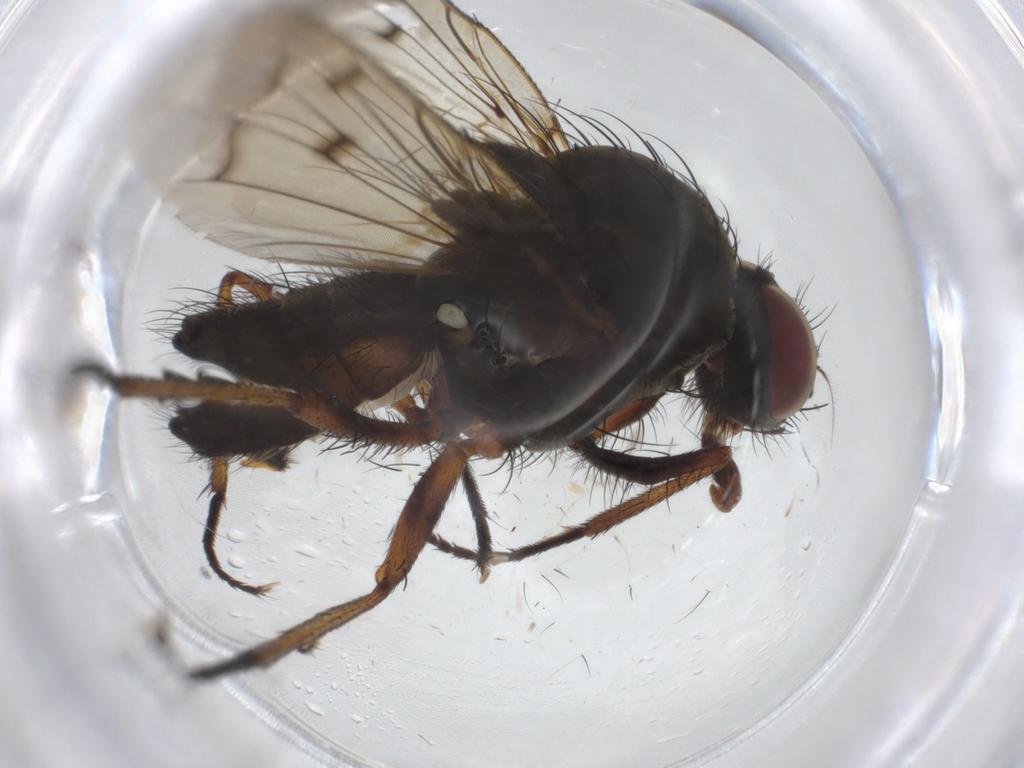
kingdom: Animalia
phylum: Arthropoda
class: Insecta
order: Diptera
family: Anthomyiidae
